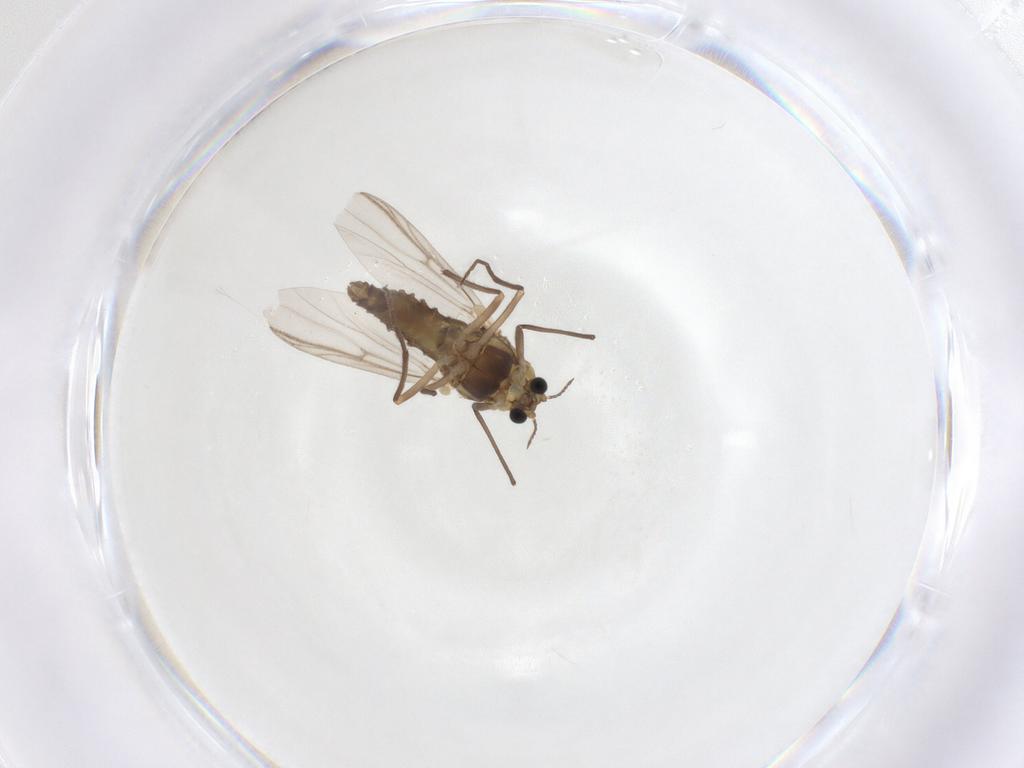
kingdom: Animalia
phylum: Arthropoda
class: Insecta
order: Diptera
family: Chironomidae
